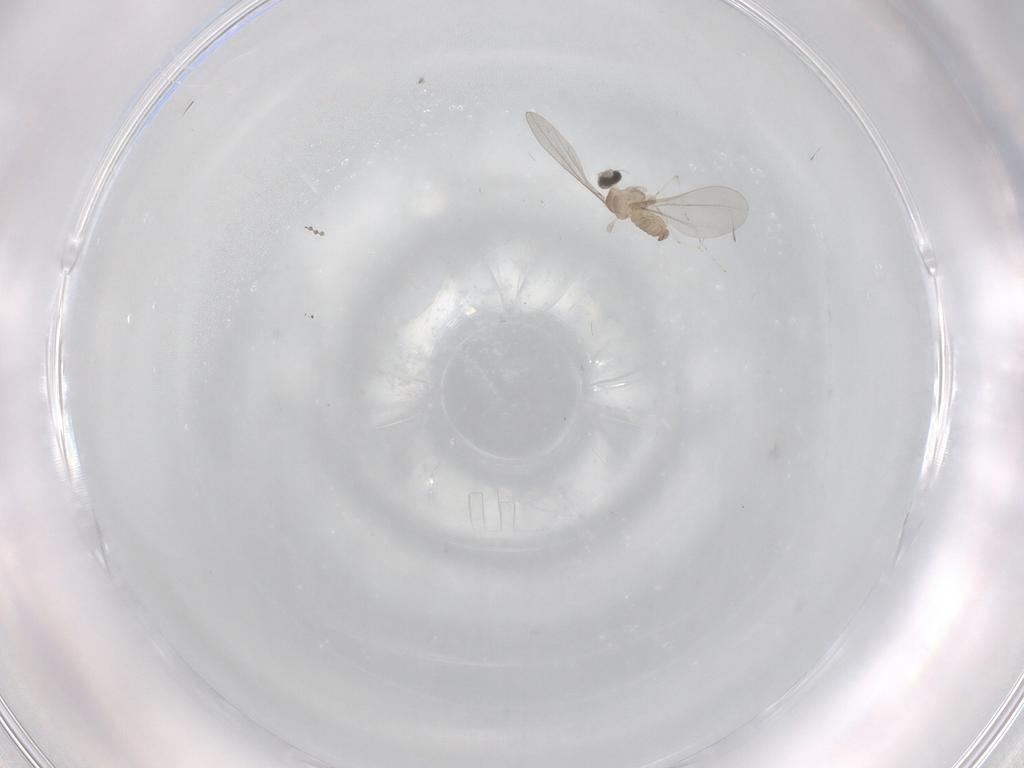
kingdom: Animalia
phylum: Arthropoda
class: Insecta
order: Diptera
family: Cecidomyiidae
